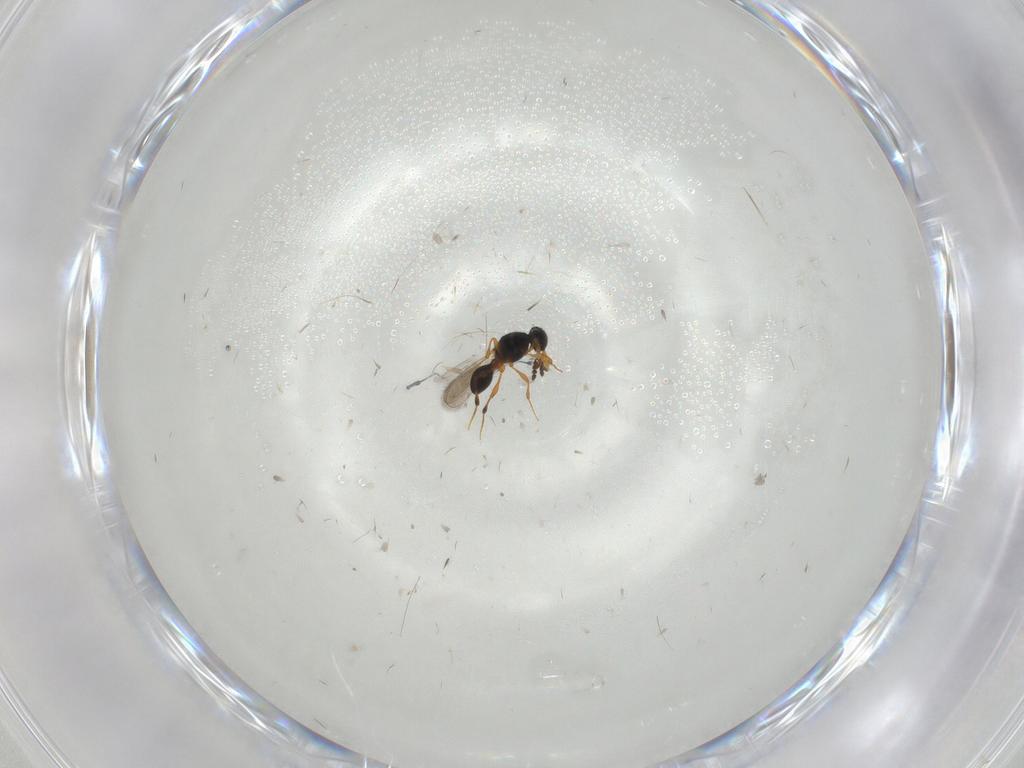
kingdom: Animalia
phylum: Arthropoda
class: Insecta
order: Hymenoptera
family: Platygastridae
